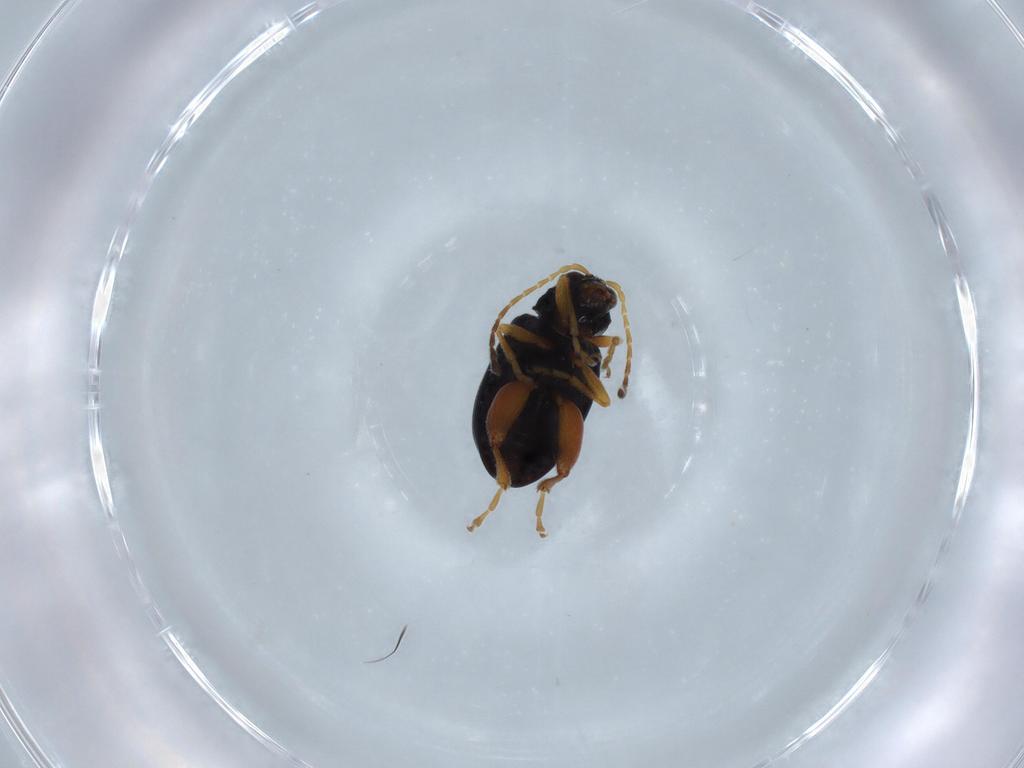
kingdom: Animalia
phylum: Arthropoda
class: Insecta
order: Coleoptera
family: Chrysomelidae
